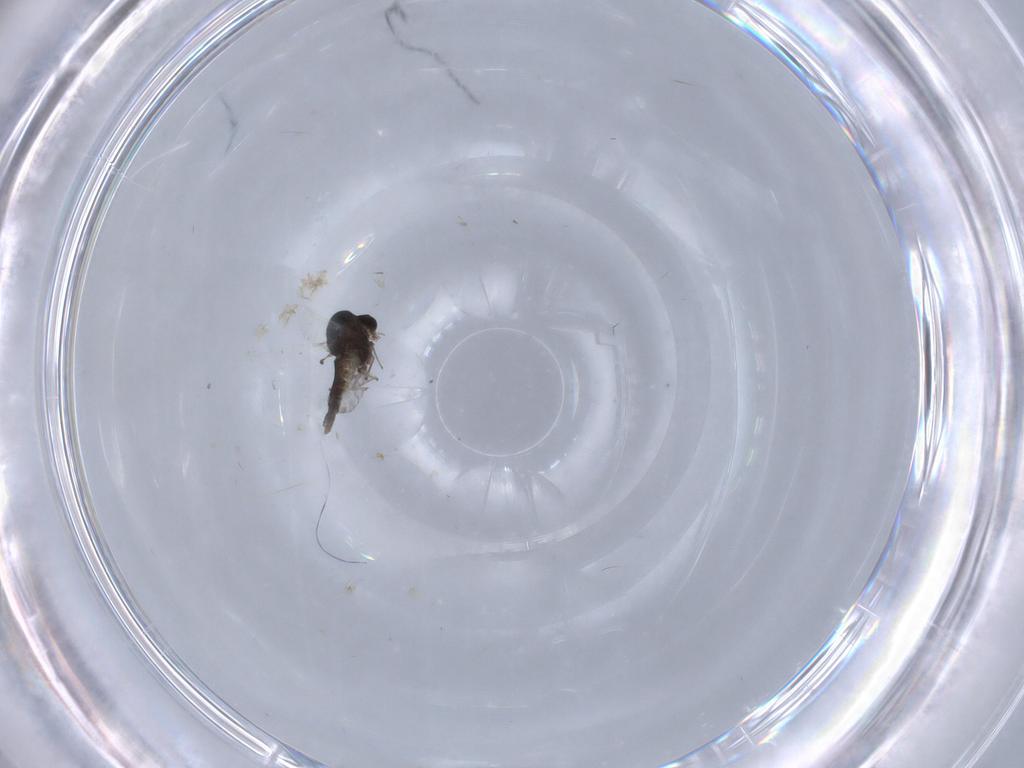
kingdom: Animalia
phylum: Arthropoda
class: Insecta
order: Diptera
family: Chironomidae
